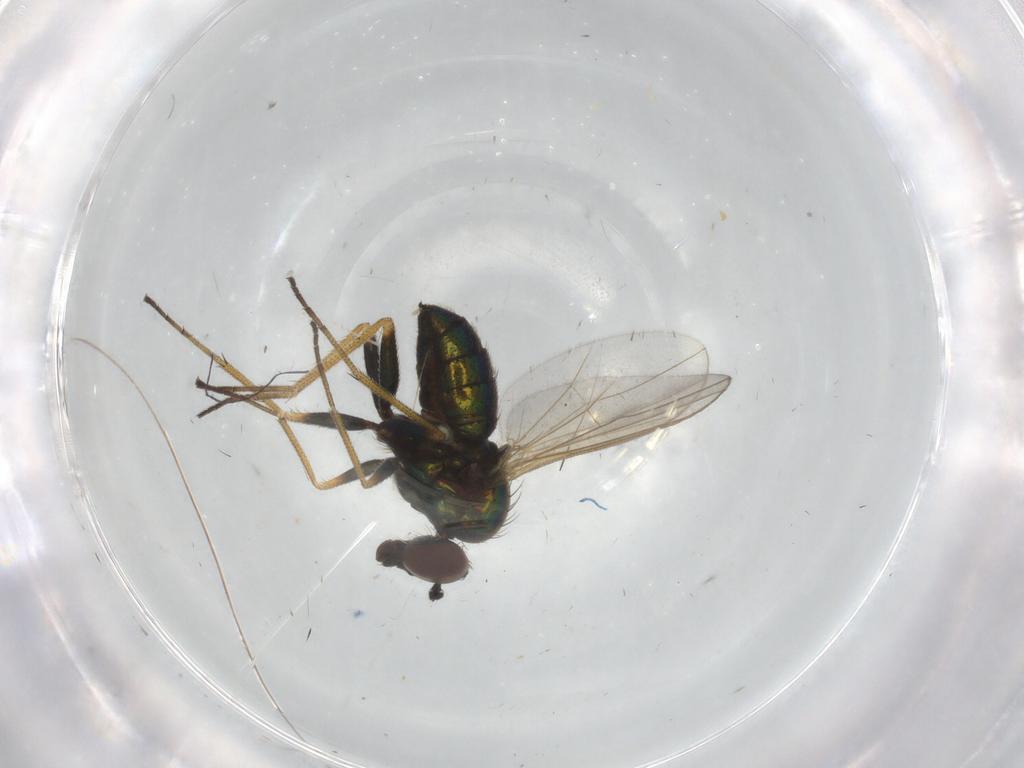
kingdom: Animalia
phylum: Arthropoda
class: Insecta
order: Diptera
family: Dolichopodidae
